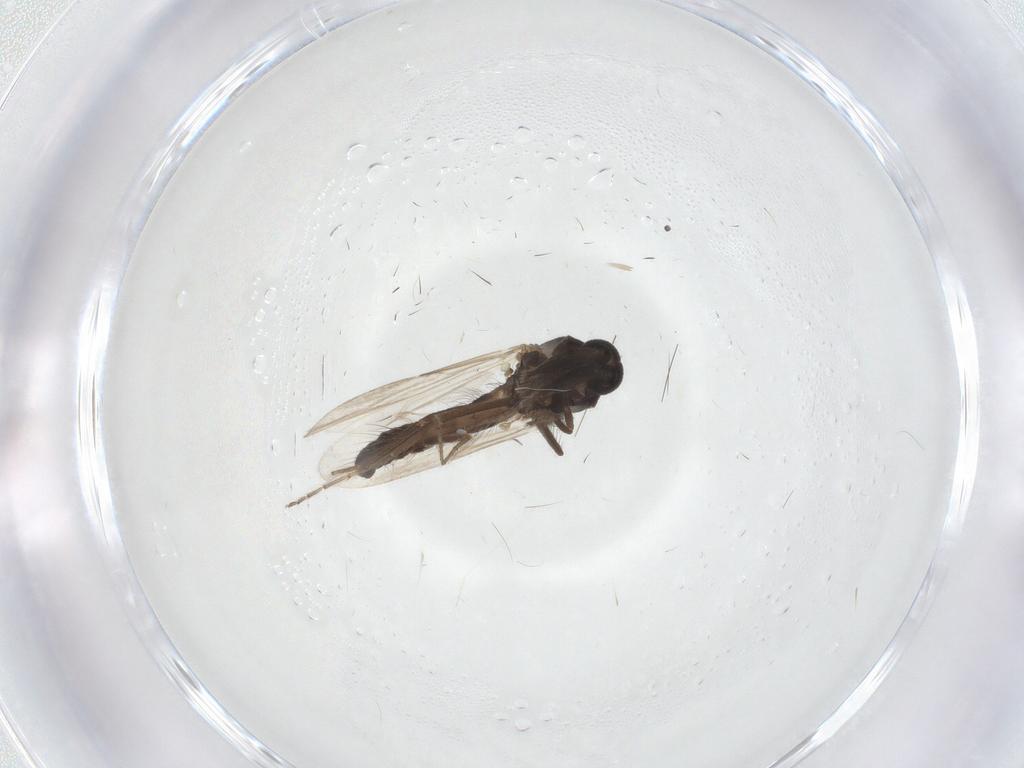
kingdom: Animalia
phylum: Arthropoda
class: Insecta
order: Diptera
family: Ceratopogonidae
